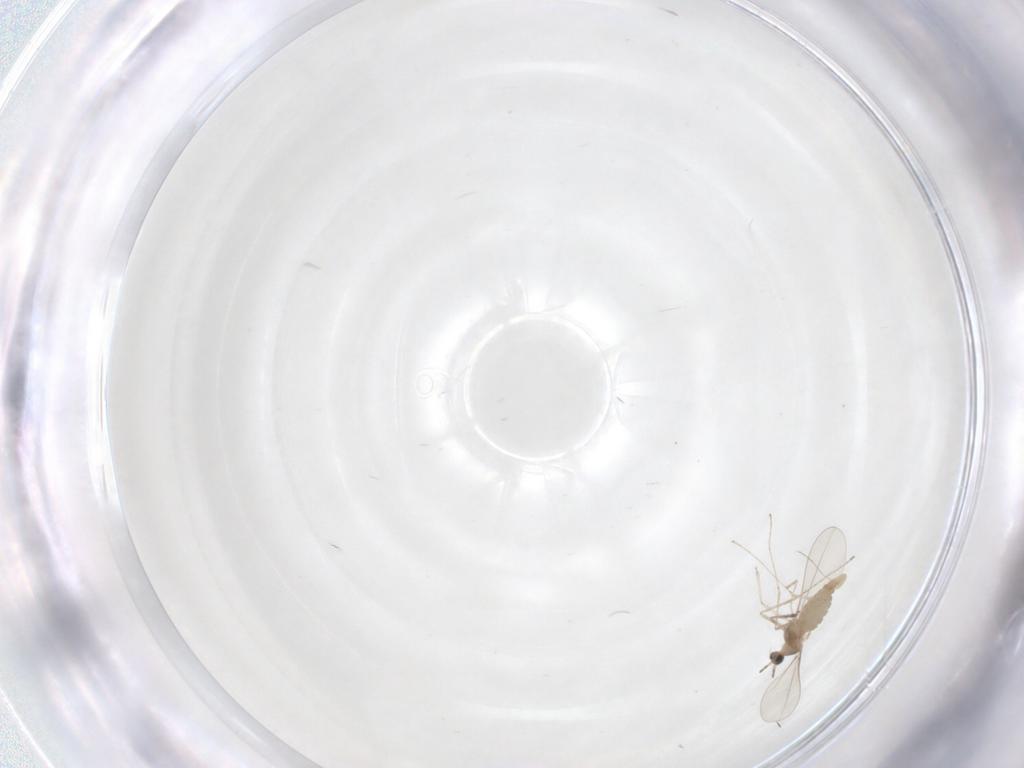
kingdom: Animalia
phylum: Arthropoda
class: Insecta
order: Diptera
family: Cecidomyiidae
